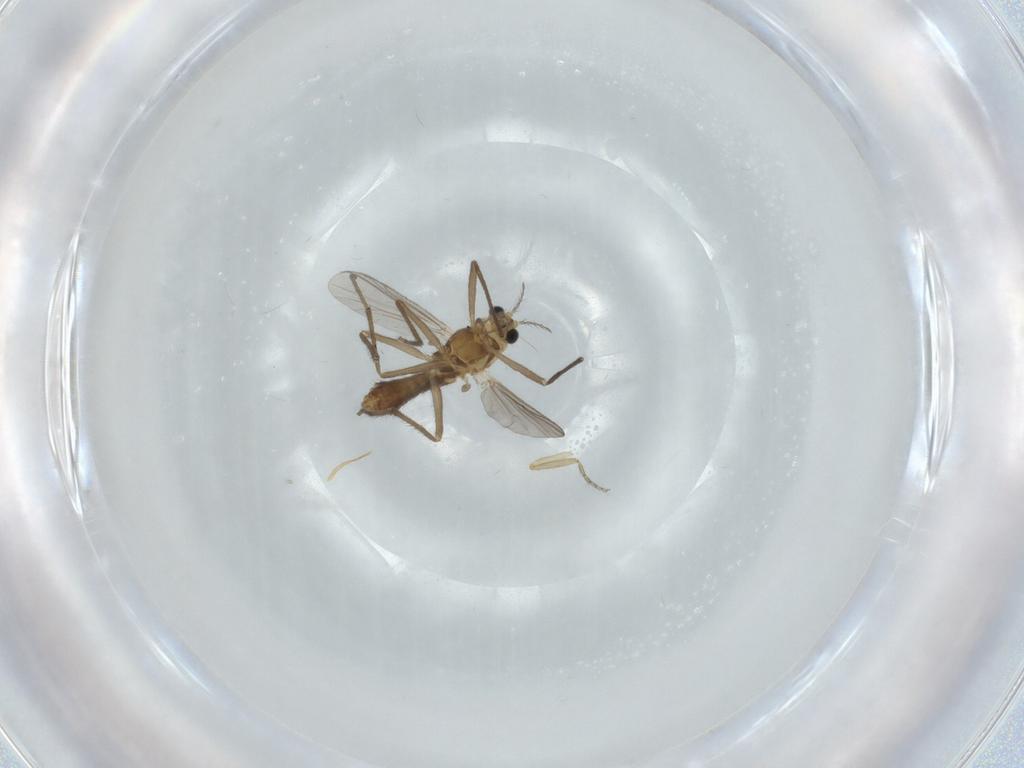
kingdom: Animalia
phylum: Arthropoda
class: Insecta
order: Diptera
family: Chironomidae
